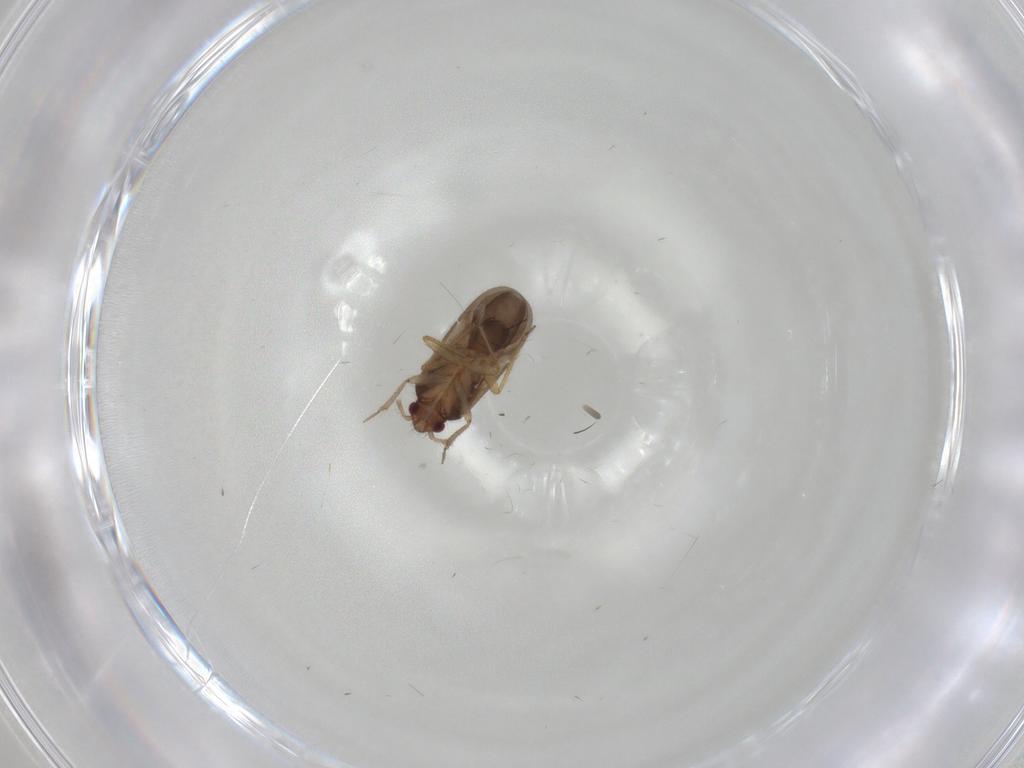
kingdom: Animalia
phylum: Arthropoda
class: Insecta
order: Hemiptera
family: Ceratocombidae
